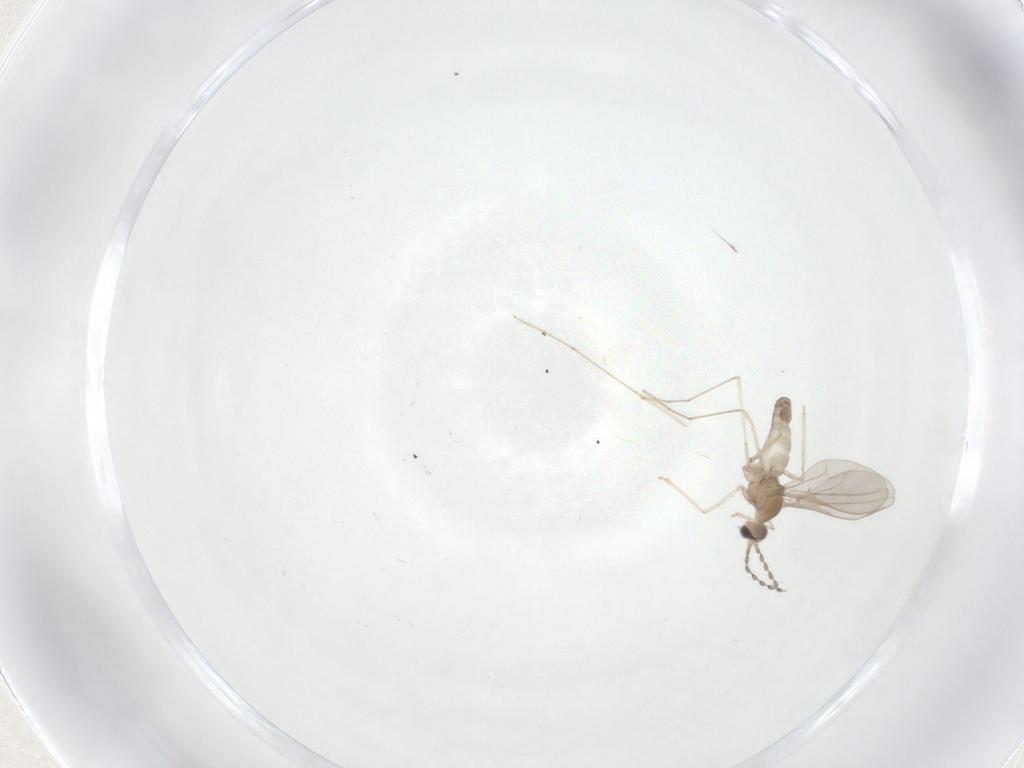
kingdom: Animalia
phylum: Arthropoda
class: Insecta
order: Diptera
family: Cecidomyiidae
